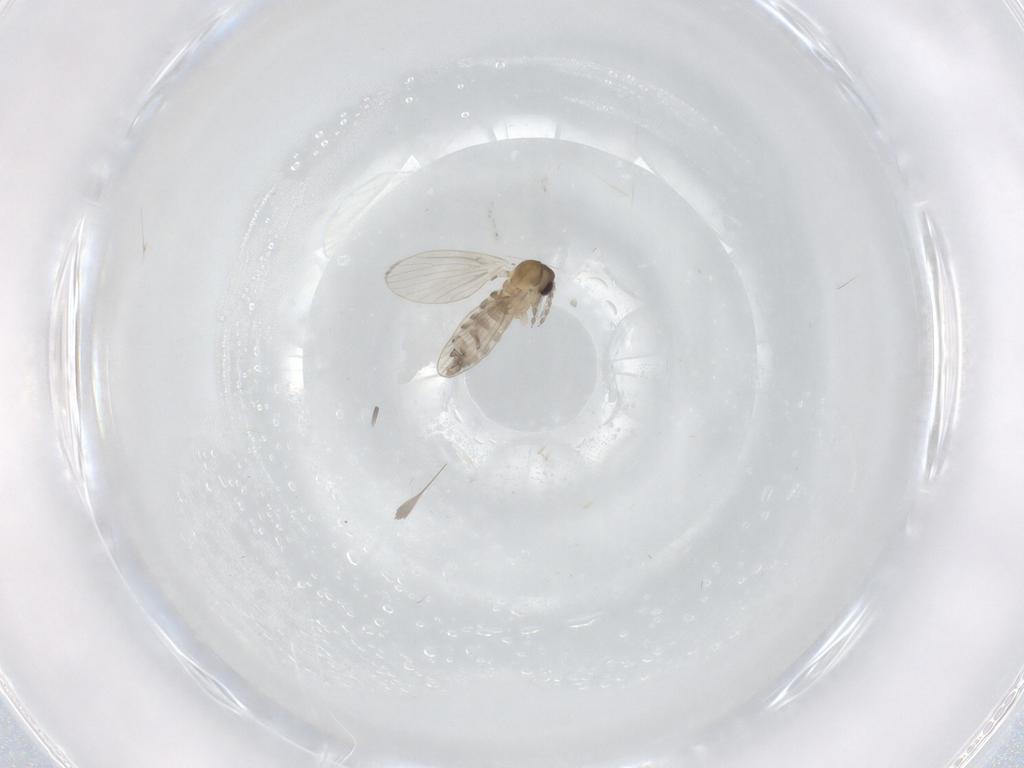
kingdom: Animalia
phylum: Arthropoda
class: Insecta
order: Diptera
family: Psychodidae
